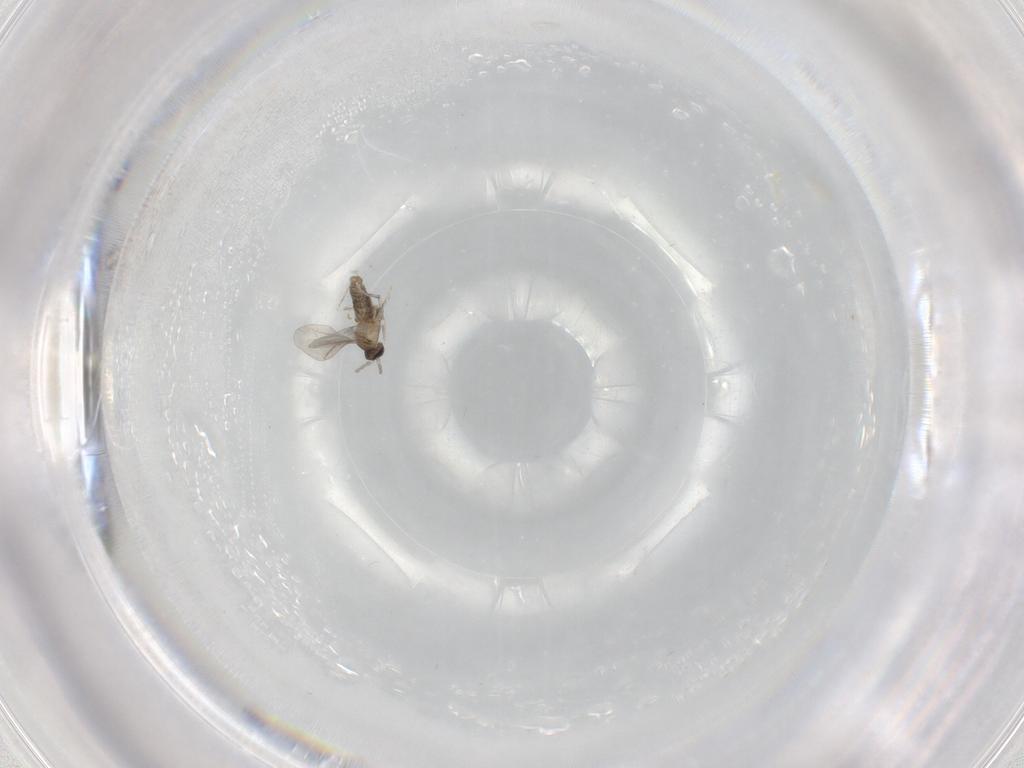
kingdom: Animalia
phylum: Arthropoda
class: Insecta
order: Diptera
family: Cecidomyiidae
